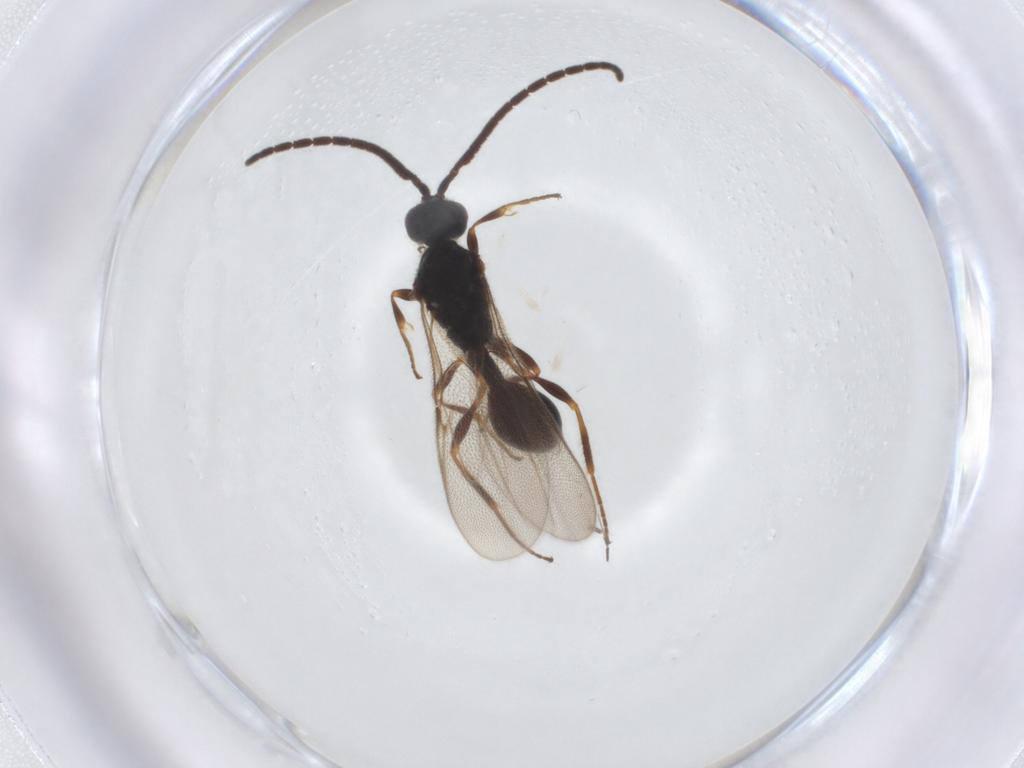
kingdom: Animalia
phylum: Arthropoda
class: Insecta
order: Hymenoptera
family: Diapriidae
